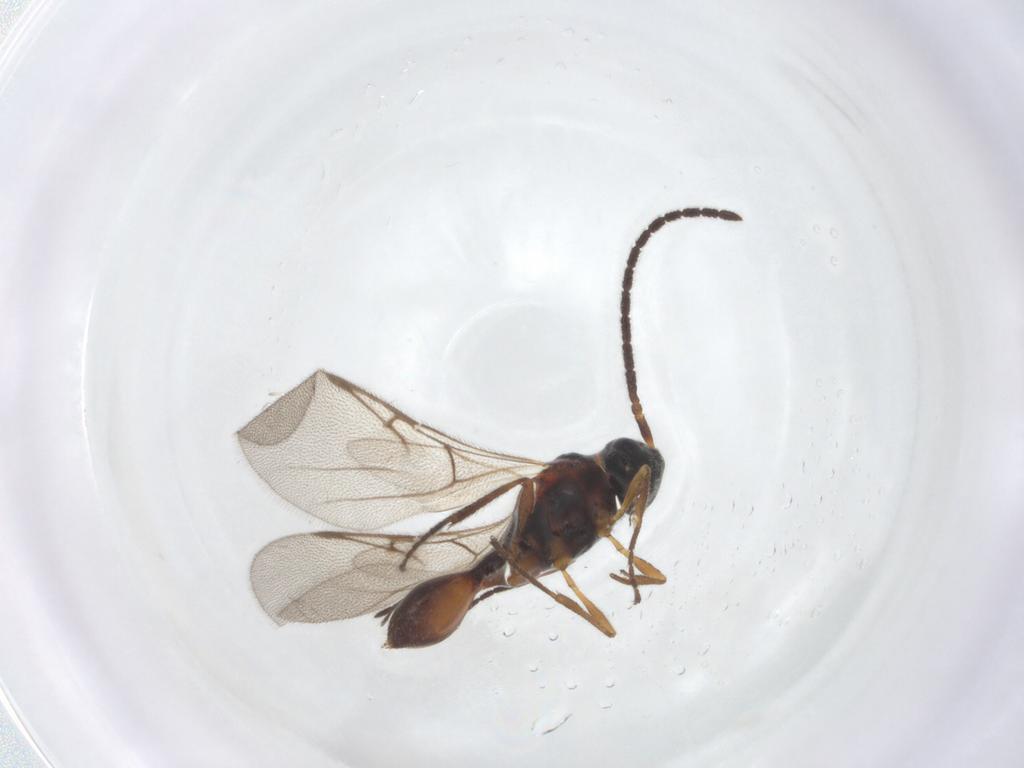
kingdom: Animalia
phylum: Arthropoda
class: Insecta
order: Hymenoptera
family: Diapriidae
